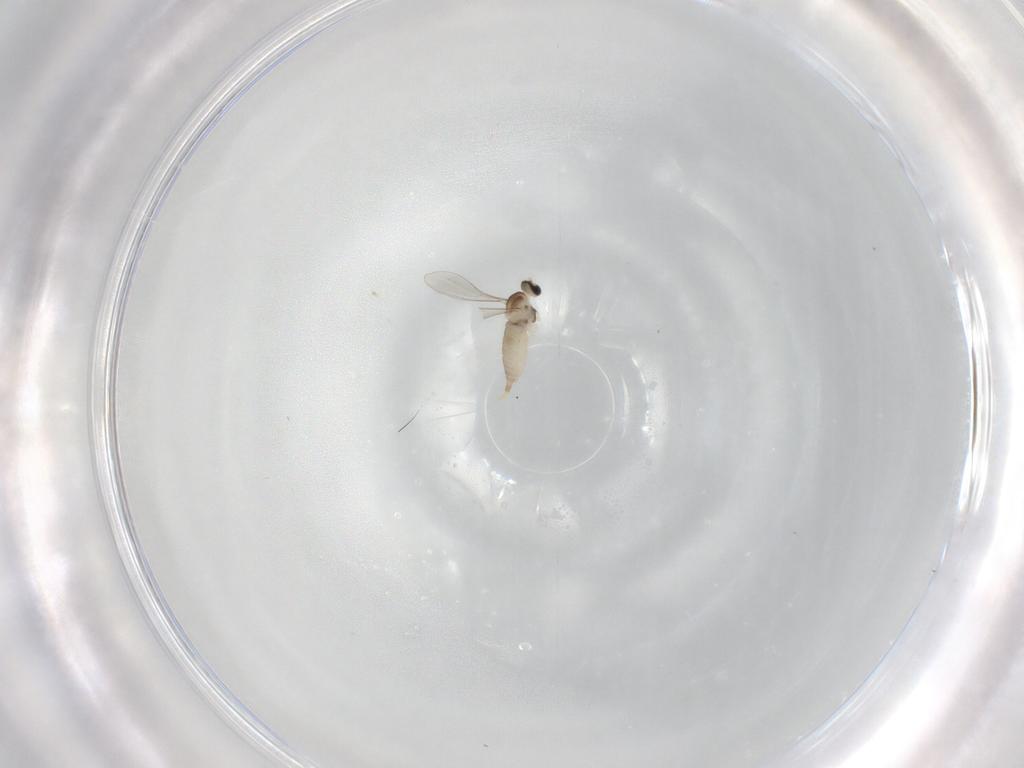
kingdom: Animalia
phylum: Arthropoda
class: Insecta
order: Diptera
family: Cecidomyiidae
